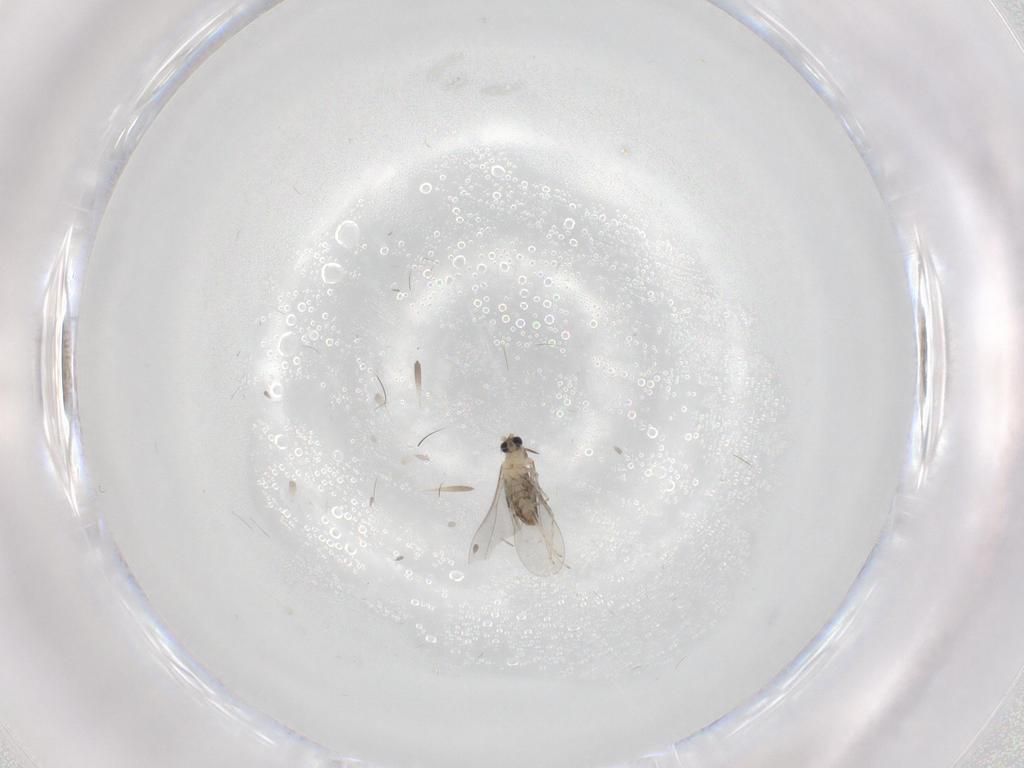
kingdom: Animalia
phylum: Arthropoda
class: Insecta
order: Diptera
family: Cecidomyiidae
